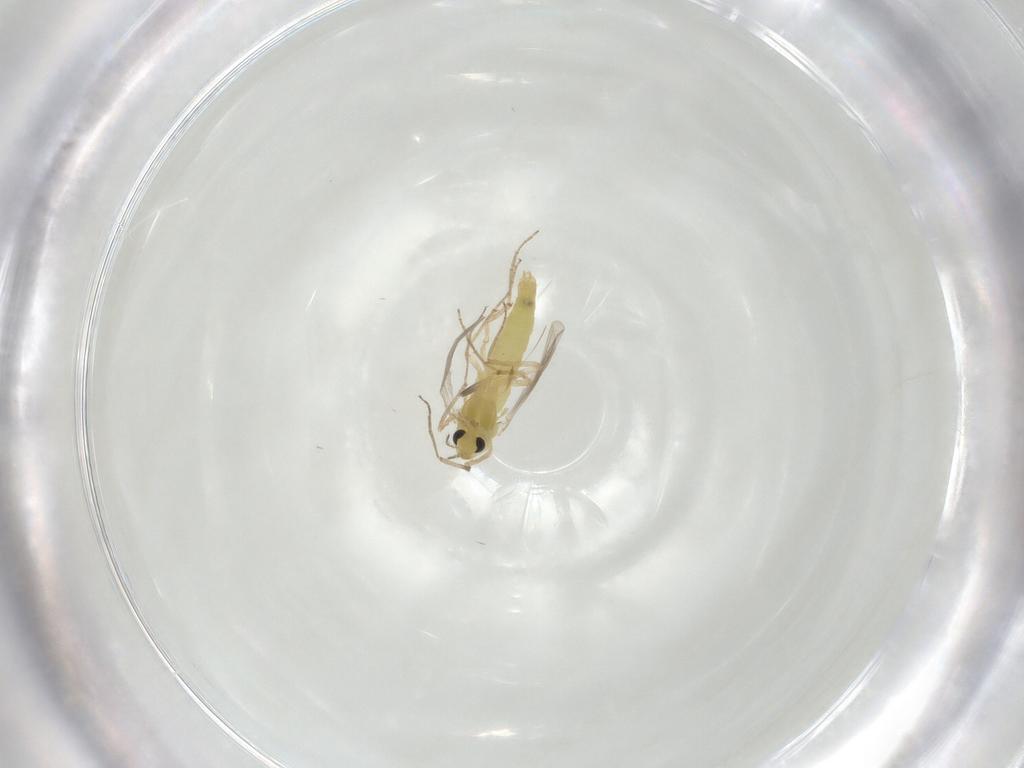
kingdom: Animalia
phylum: Arthropoda
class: Insecta
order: Diptera
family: Chironomidae
